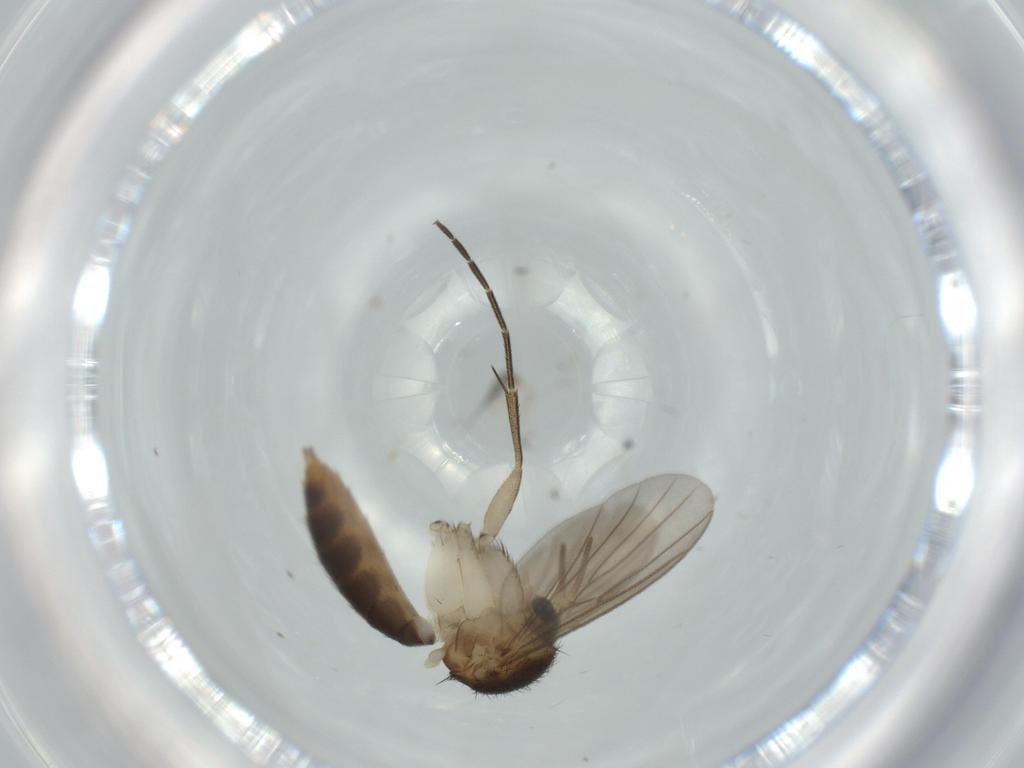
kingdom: Animalia
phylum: Arthropoda
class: Insecta
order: Diptera
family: Mycetophilidae
